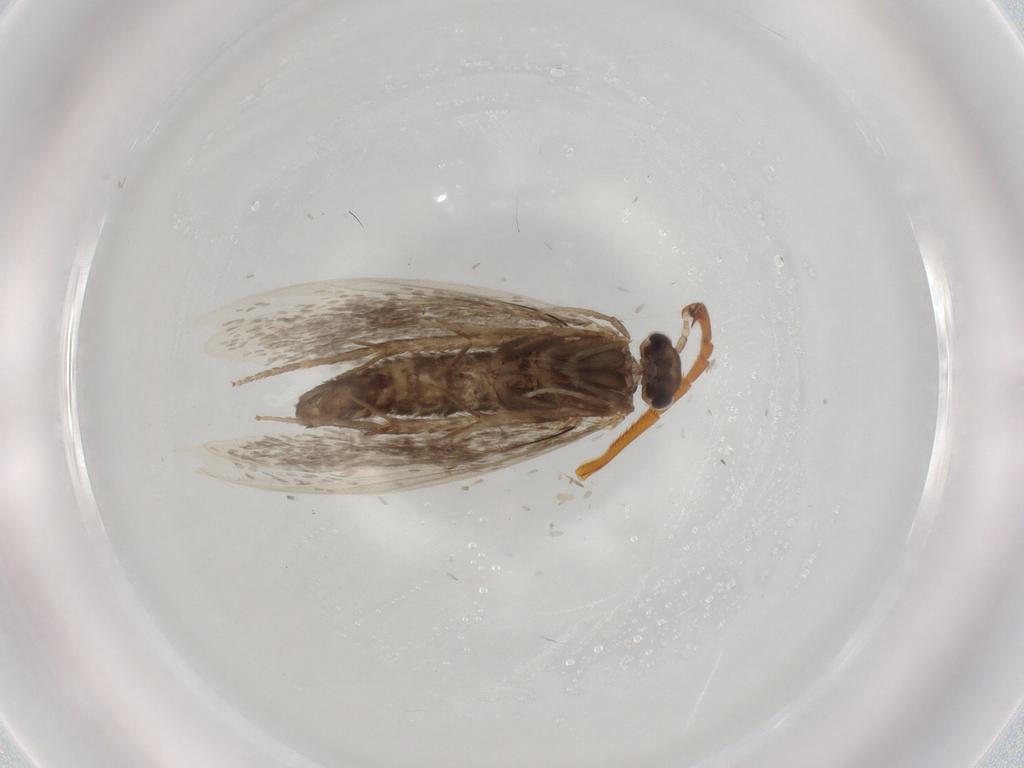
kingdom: Animalia
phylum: Arthropoda
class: Insecta
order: Lepidoptera
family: Psychidae
